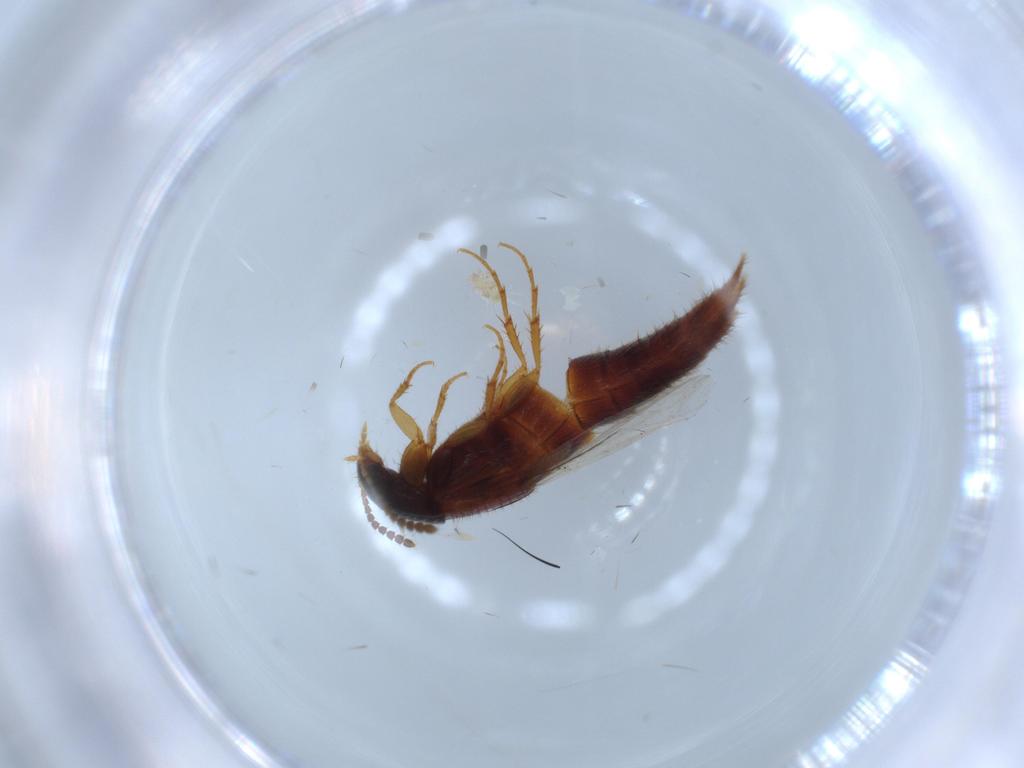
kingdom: Animalia
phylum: Arthropoda
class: Insecta
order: Coleoptera
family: Staphylinidae
